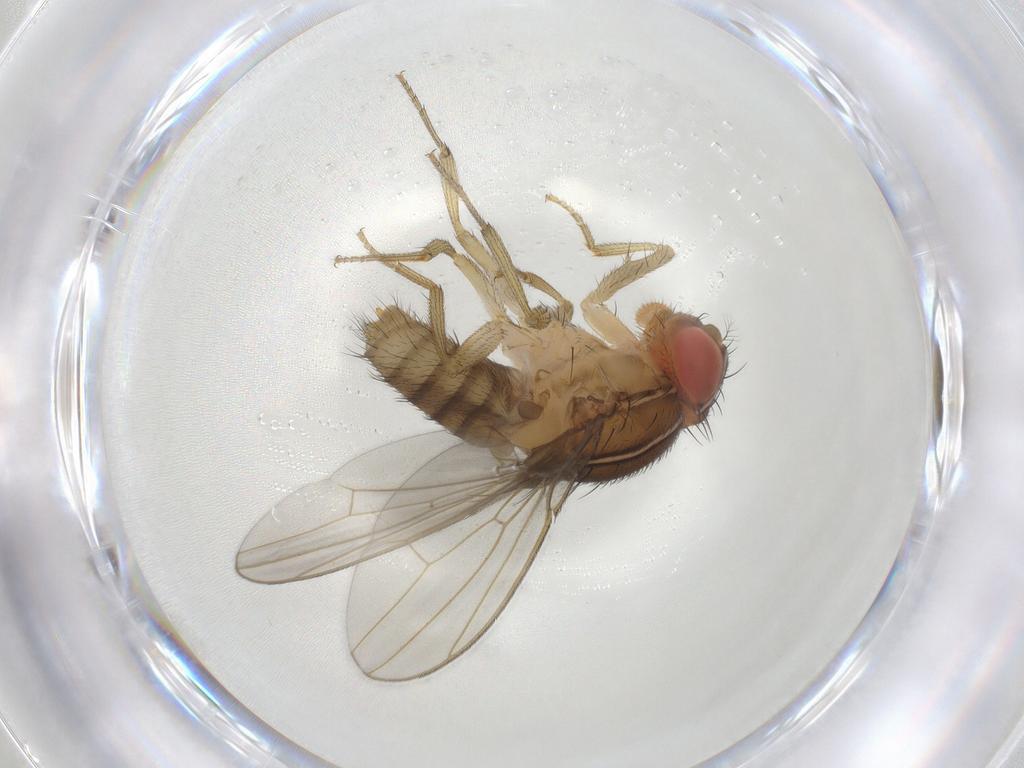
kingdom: Animalia
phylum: Arthropoda
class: Insecta
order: Diptera
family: Drosophilidae
